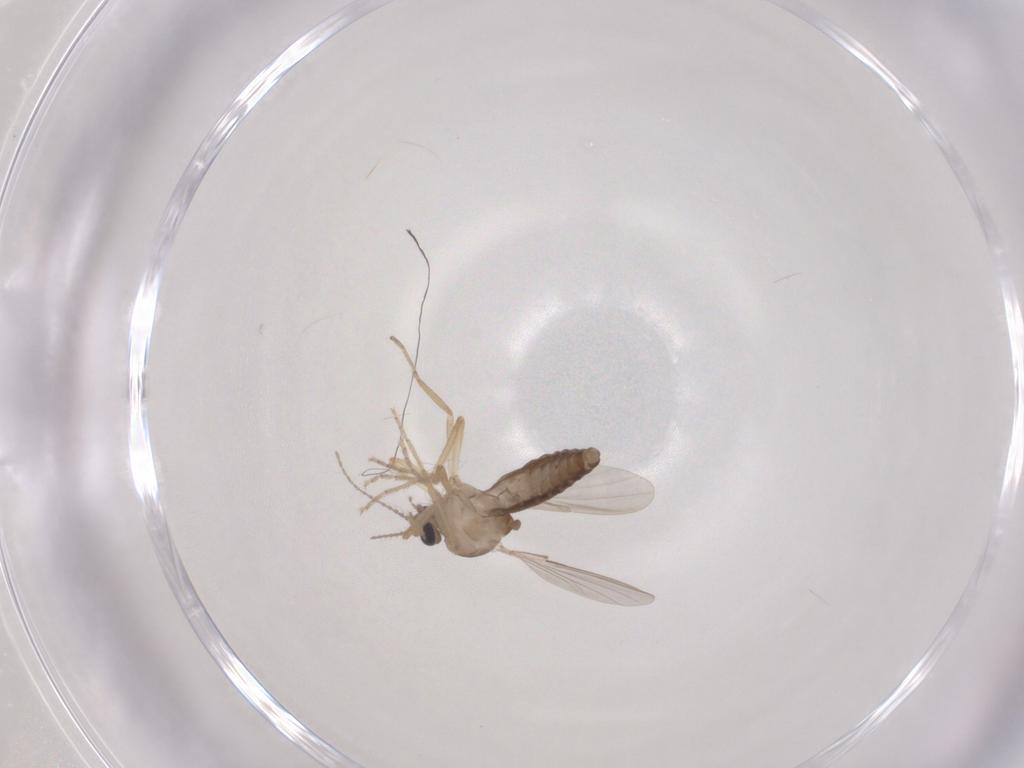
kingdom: Animalia
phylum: Arthropoda
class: Insecta
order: Diptera
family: Ceratopogonidae
